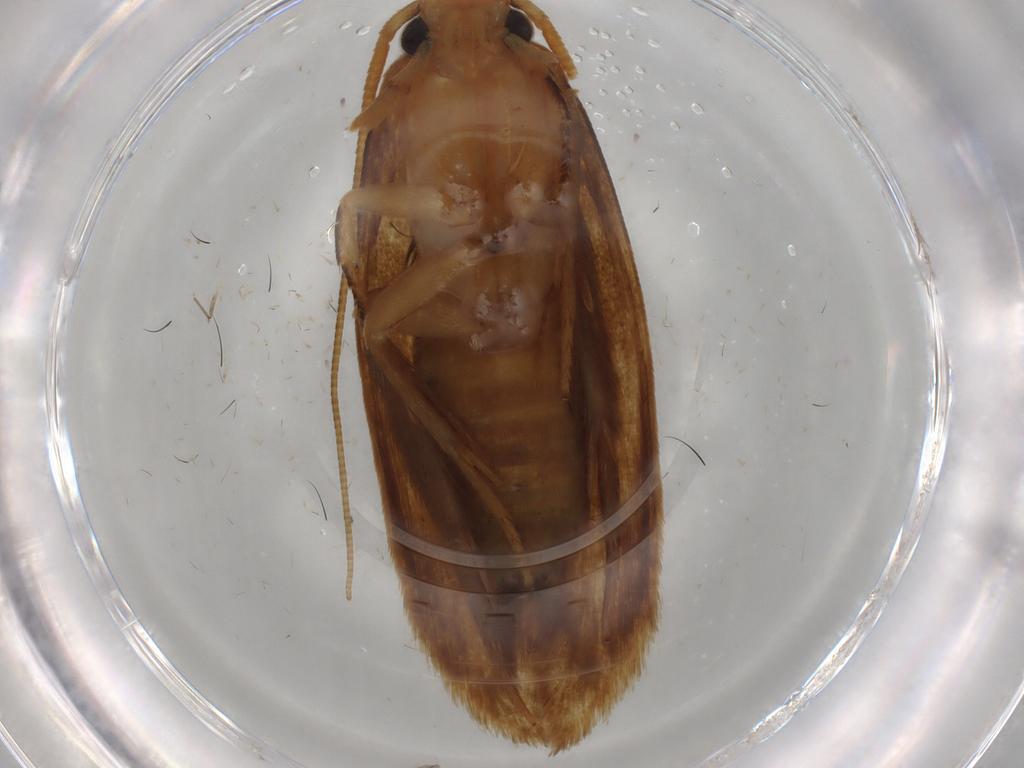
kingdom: Animalia
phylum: Arthropoda
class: Insecta
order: Lepidoptera
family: Tineidae
